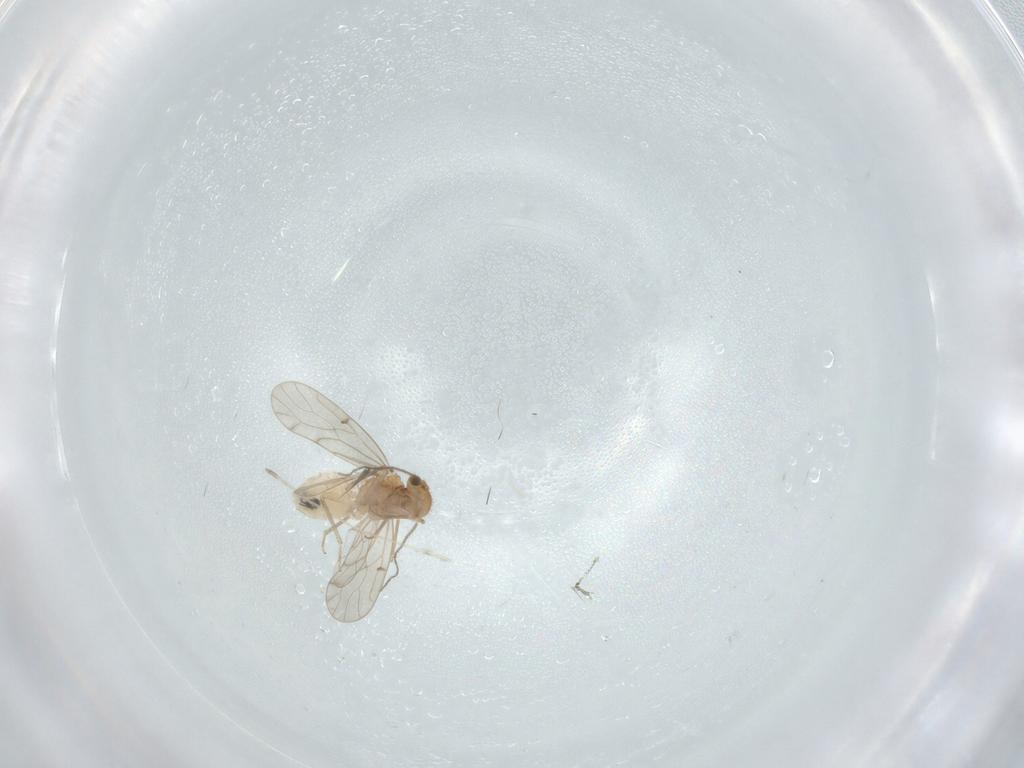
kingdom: Animalia
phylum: Arthropoda
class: Insecta
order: Psocodea
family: Ectopsocidae
